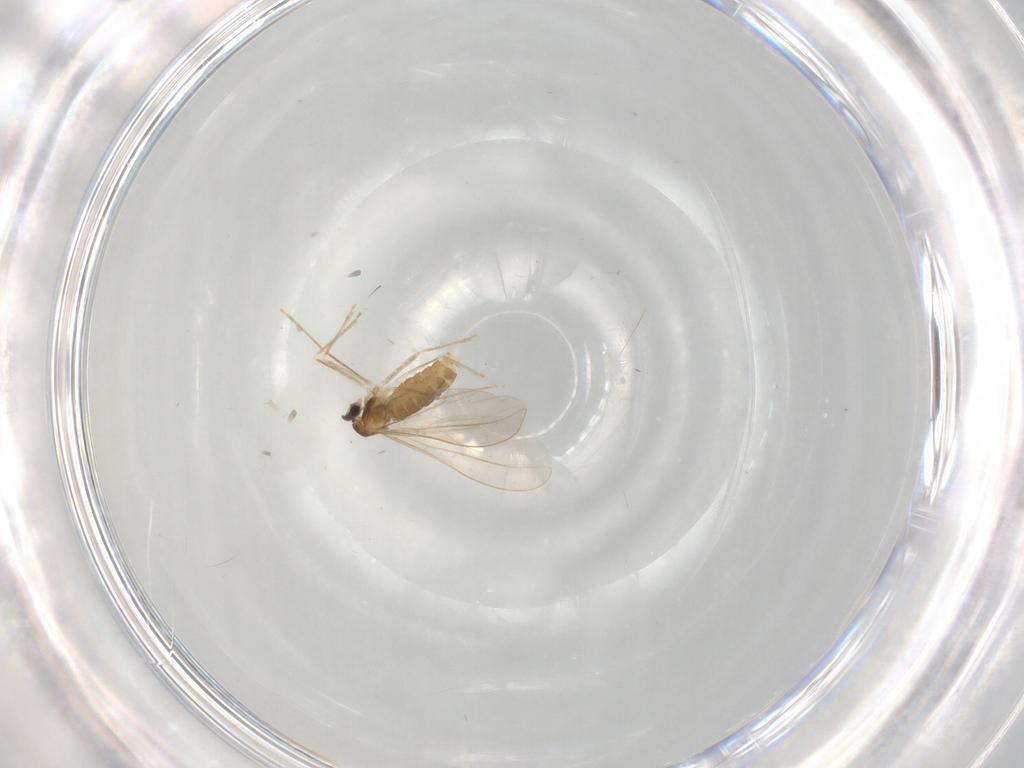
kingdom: Animalia
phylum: Arthropoda
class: Insecta
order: Diptera
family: Cecidomyiidae
